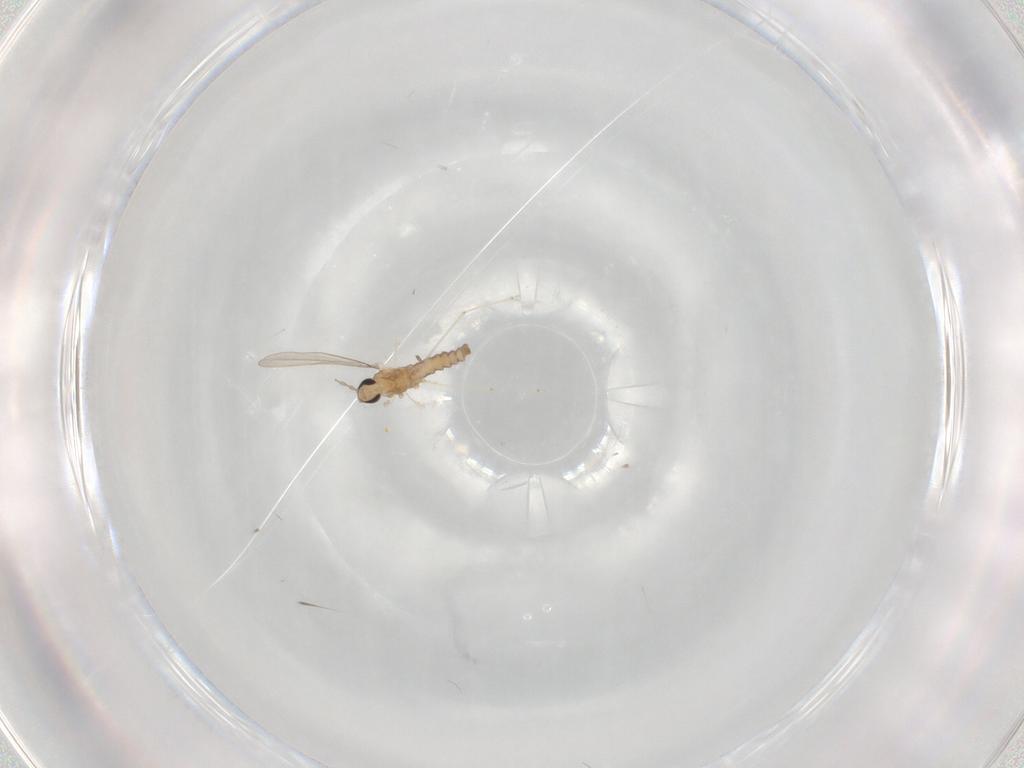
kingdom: Animalia
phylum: Arthropoda
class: Insecta
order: Diptera
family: Cecidomyiidae
